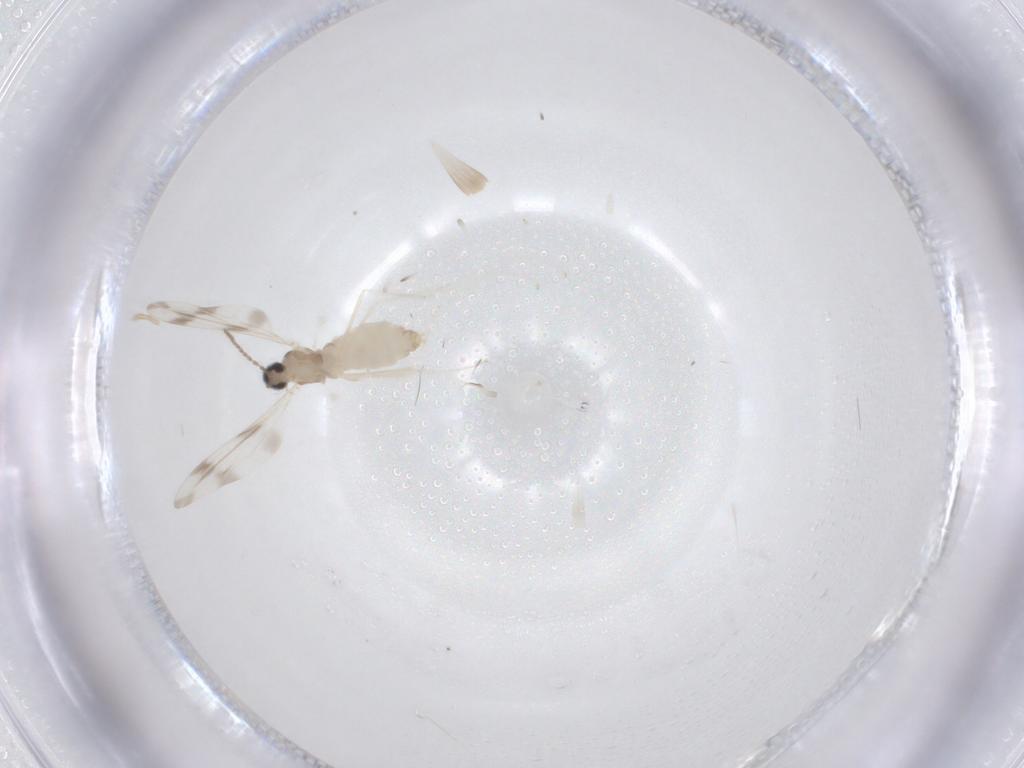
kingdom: Animalia
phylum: Arthropoda
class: Insecta
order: Diptera
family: Cecidomyiidae
